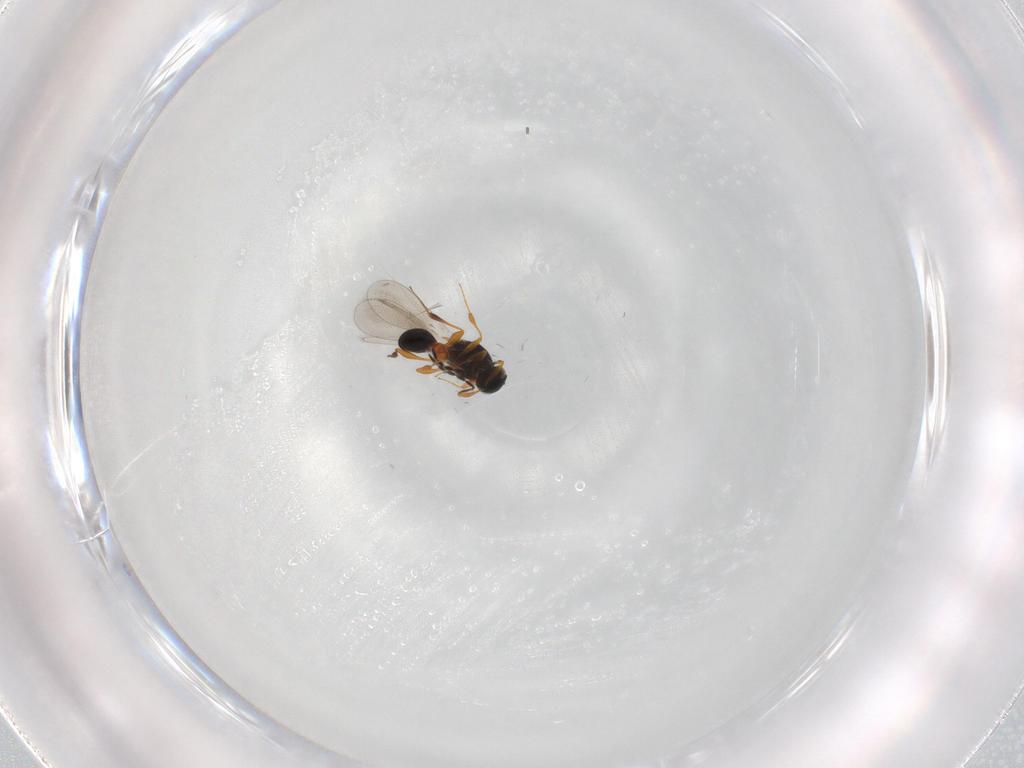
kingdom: Animalia
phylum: Arthropoda
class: Insecta
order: Hymenoptera
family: Platygastridae
